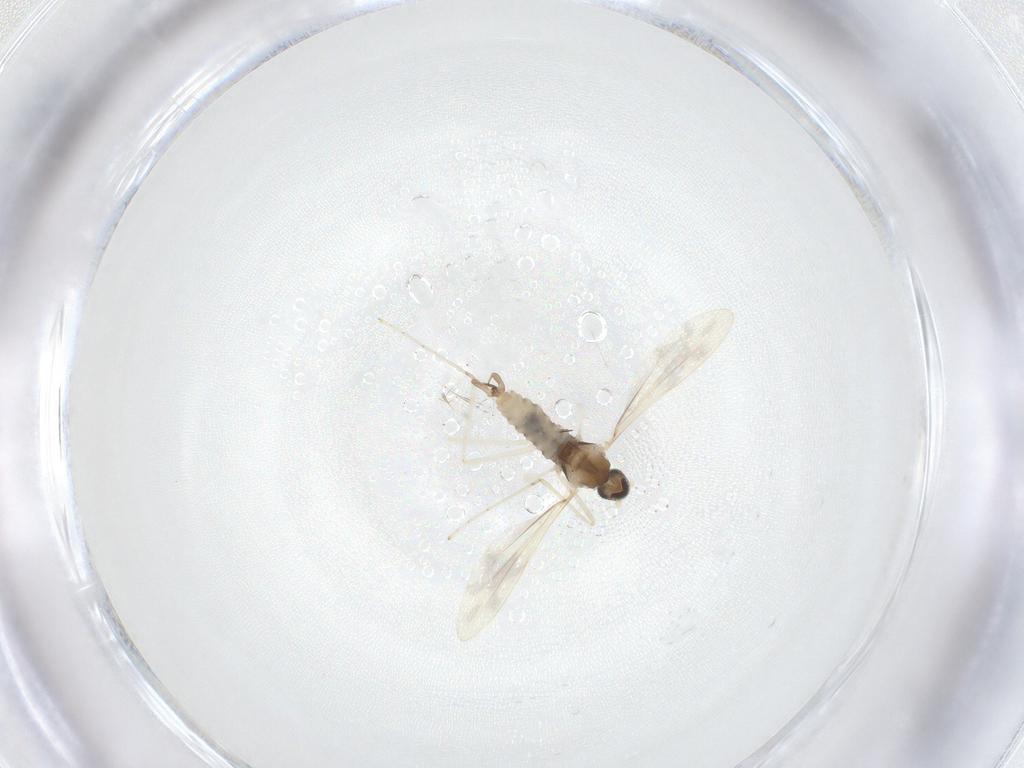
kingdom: Animalia
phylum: Arthropoda
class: Insecta
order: Diptera
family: Cecidomyiidae
